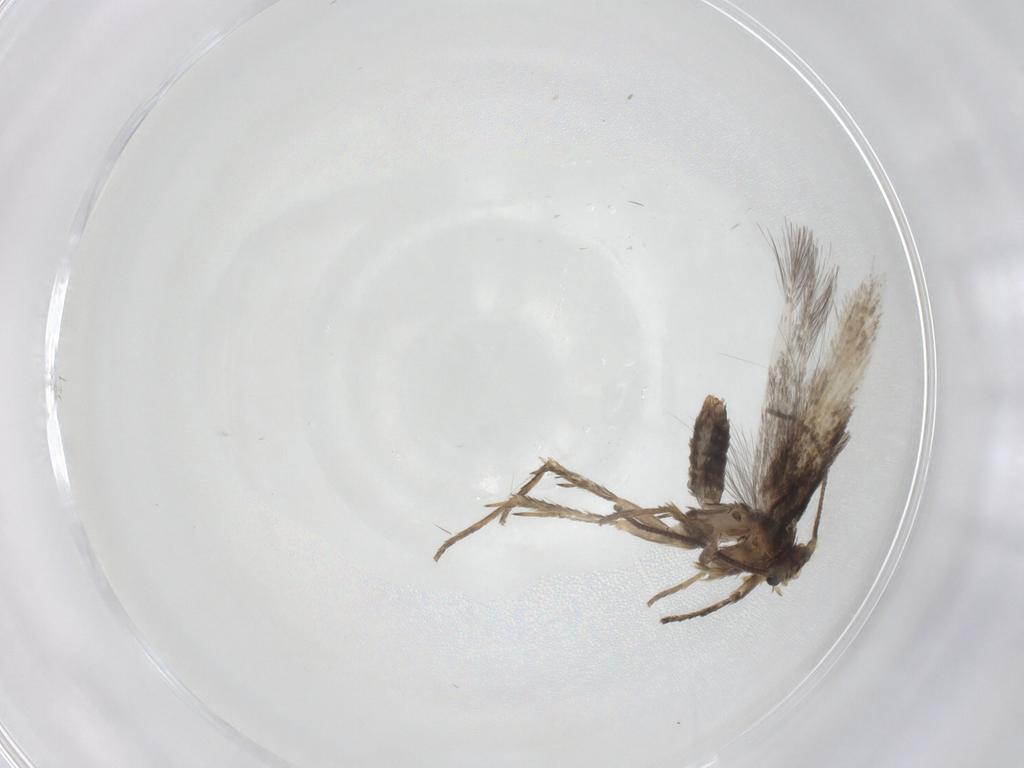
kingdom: Animalia
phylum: Arthropoda
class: Insecta
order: Lepidoptera
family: Nepticulidae
